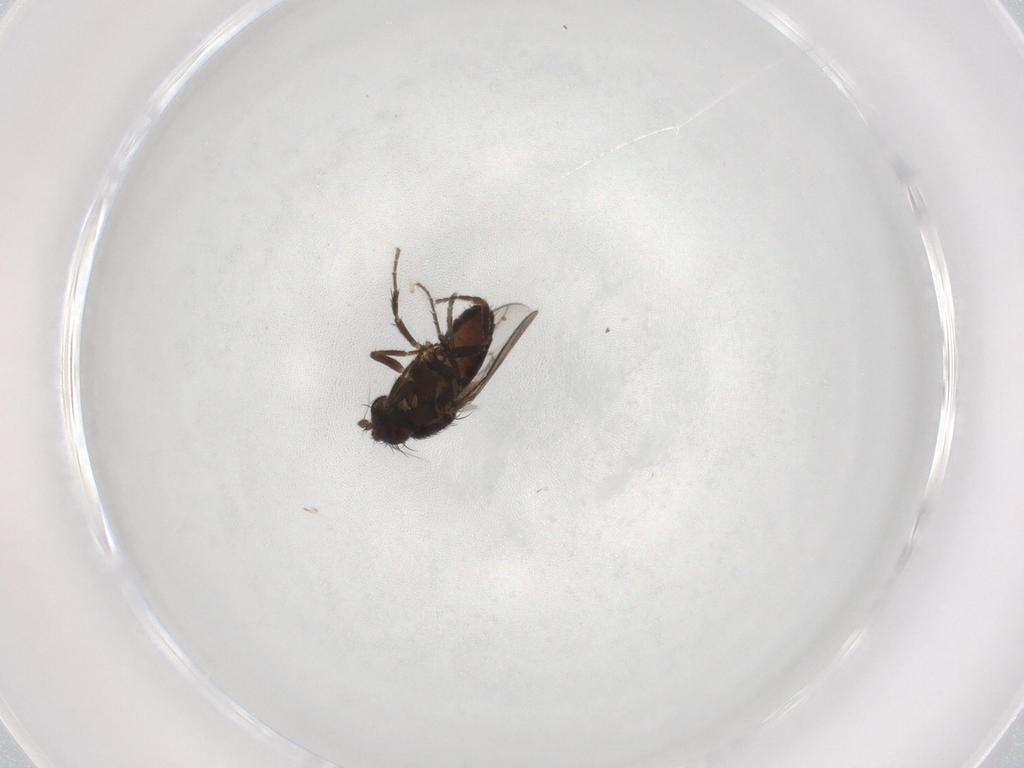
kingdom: Animalia
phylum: Arthropoda
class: Insecta
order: Diptera
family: Sphaeroceridae
